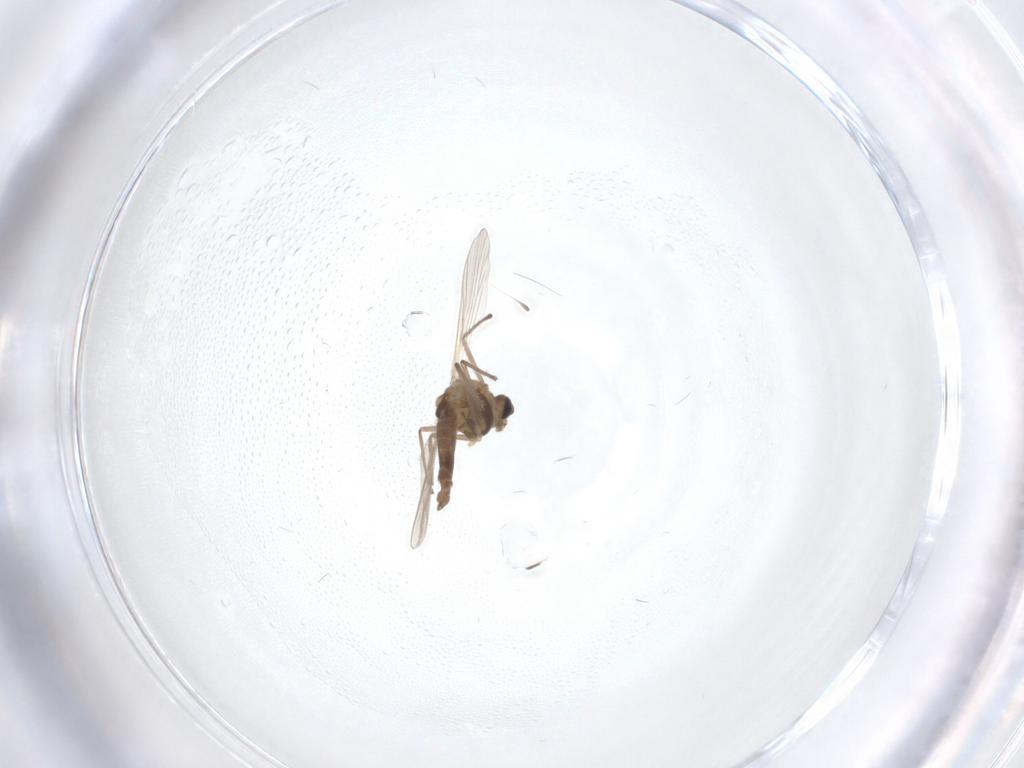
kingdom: Animalia
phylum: Arthropoda
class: Insecta
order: Diptera
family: Chironomidae
